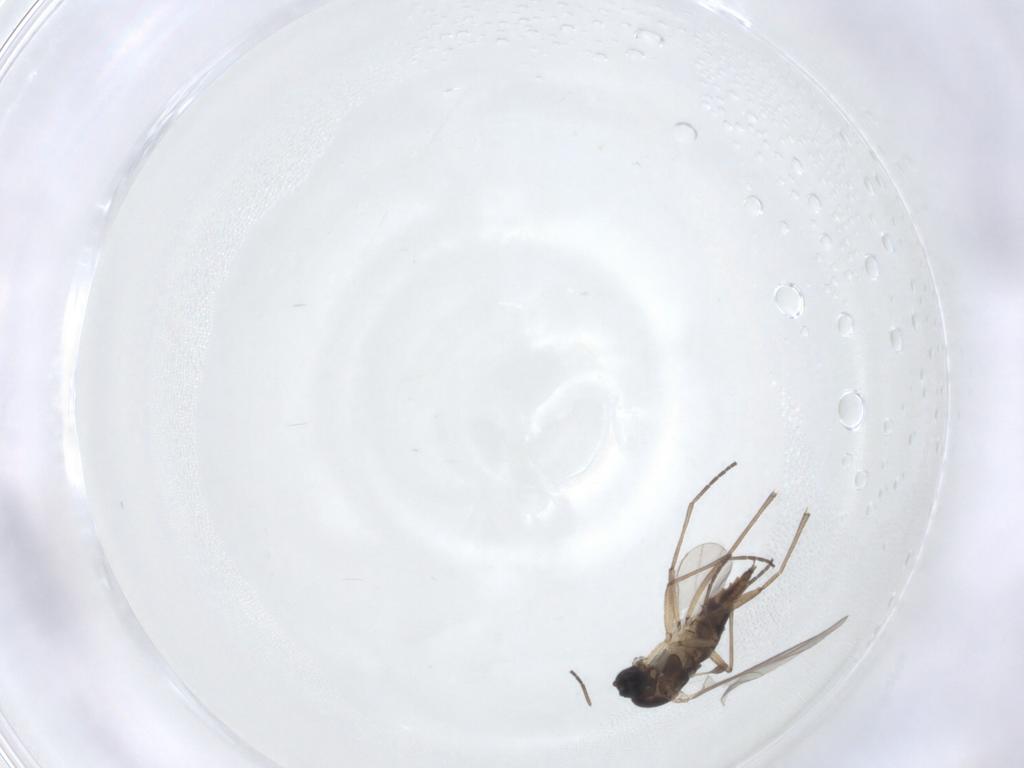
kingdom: Animalia
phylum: Arthropoda
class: Insecta
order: Diptera
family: Sciaridae
